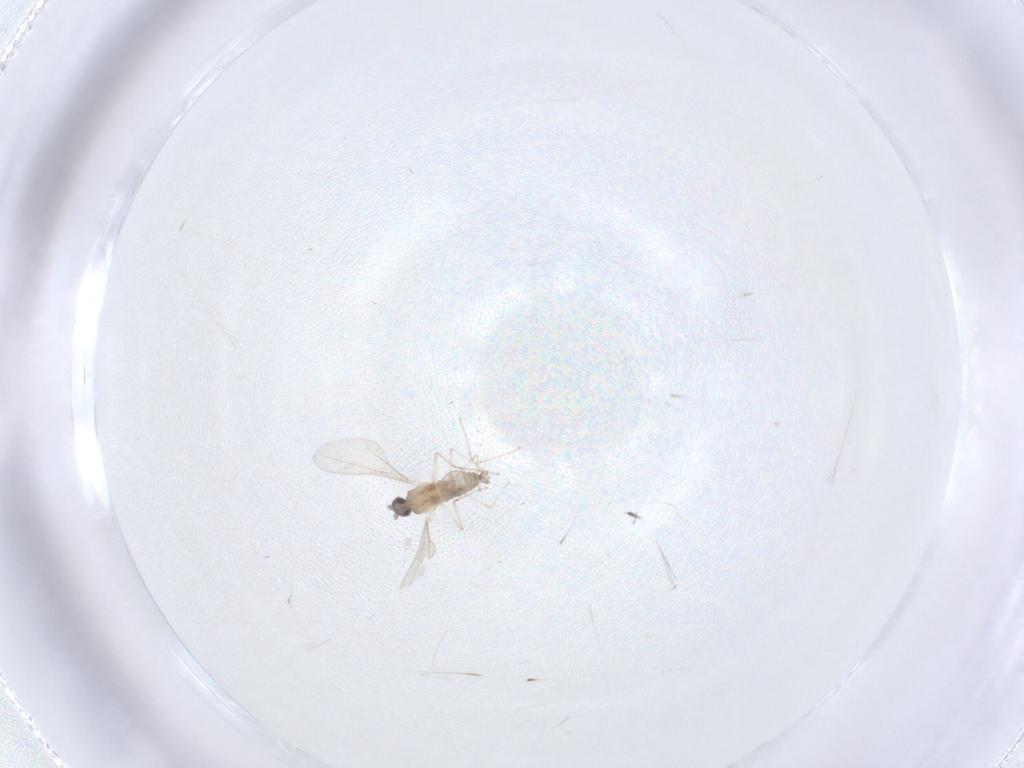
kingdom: Animalia
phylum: Arthropoda
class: Insecta
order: Diptera
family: Cecidomyiidae
